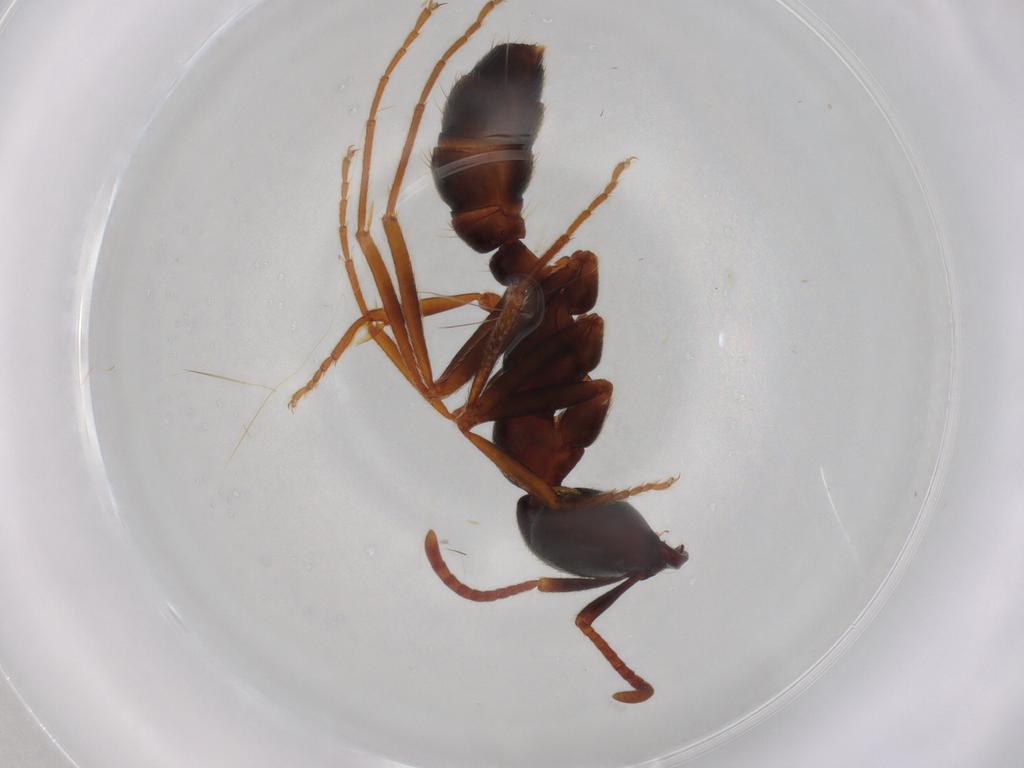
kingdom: Animalia
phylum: Arthropoda
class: Insecta
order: Hymenoptera
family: Formicidae
